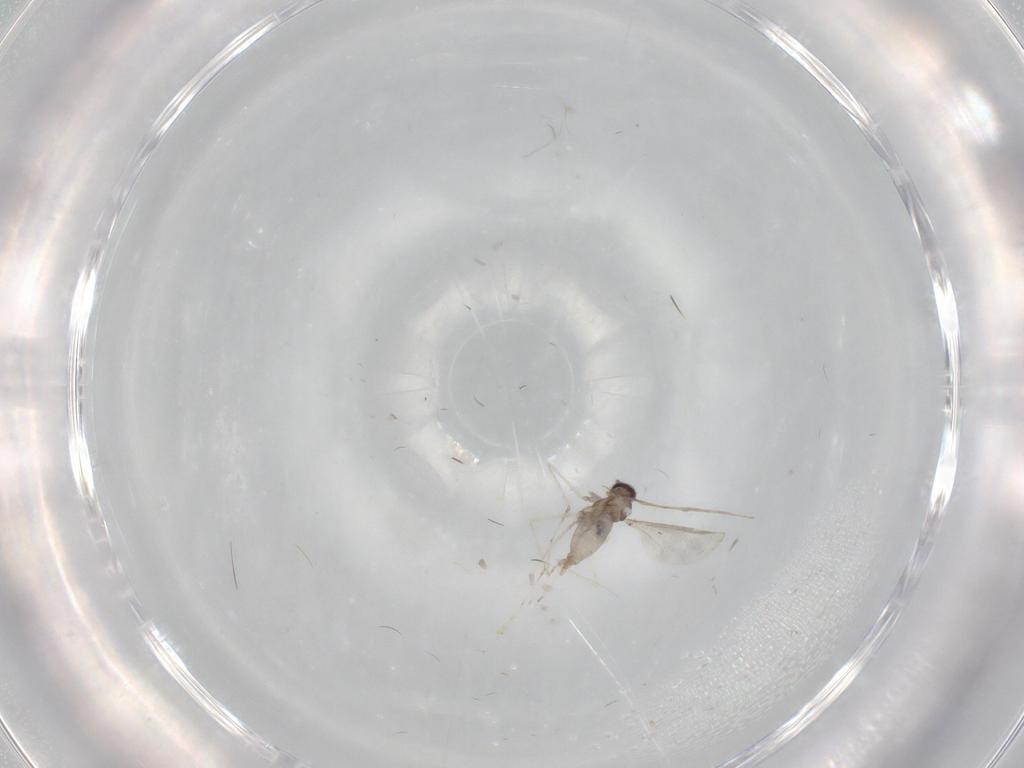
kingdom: Animalia
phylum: Arthropoda
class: Insecta
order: Diptera
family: Cecidomyiidae
